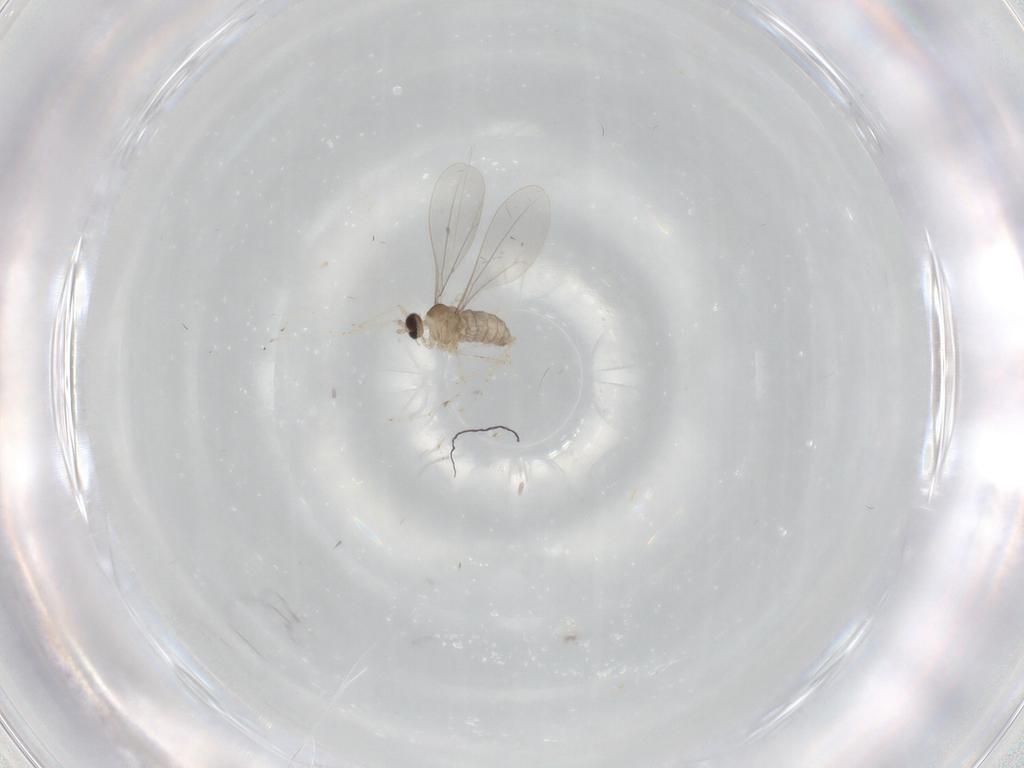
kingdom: Animalia
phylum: Arthropoda
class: Insecta
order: Diptera
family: Cecidomyiidae
